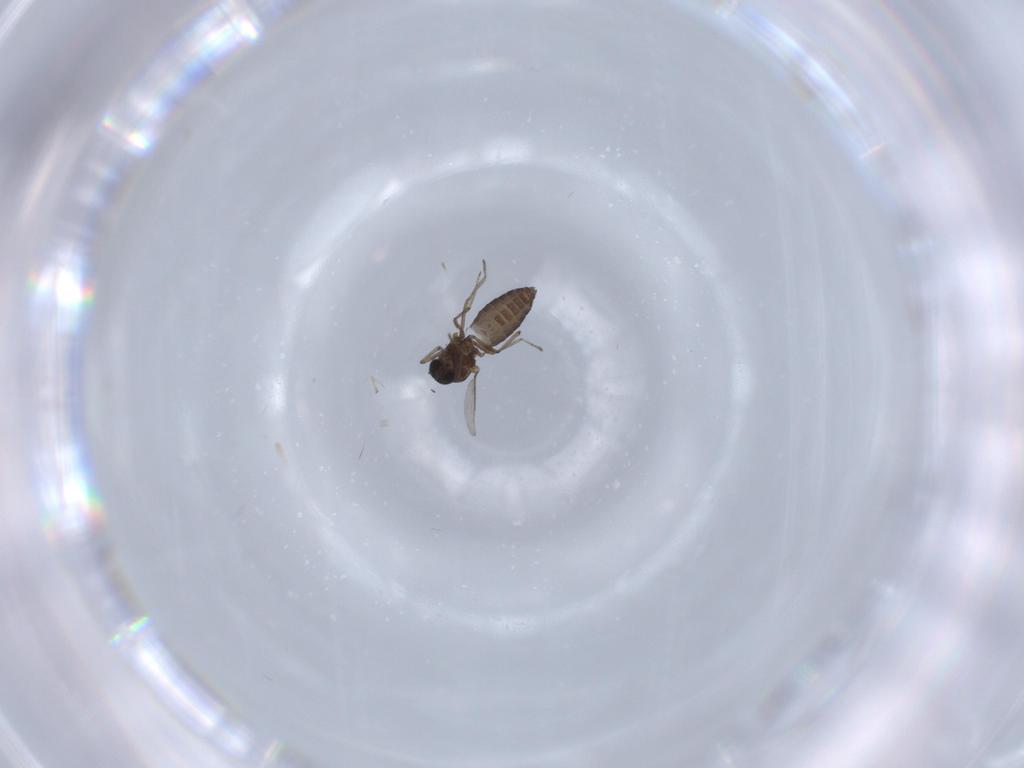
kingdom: Animalia
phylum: Arthropoda
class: Insecta
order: Diptera
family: Ceratopogonidae
